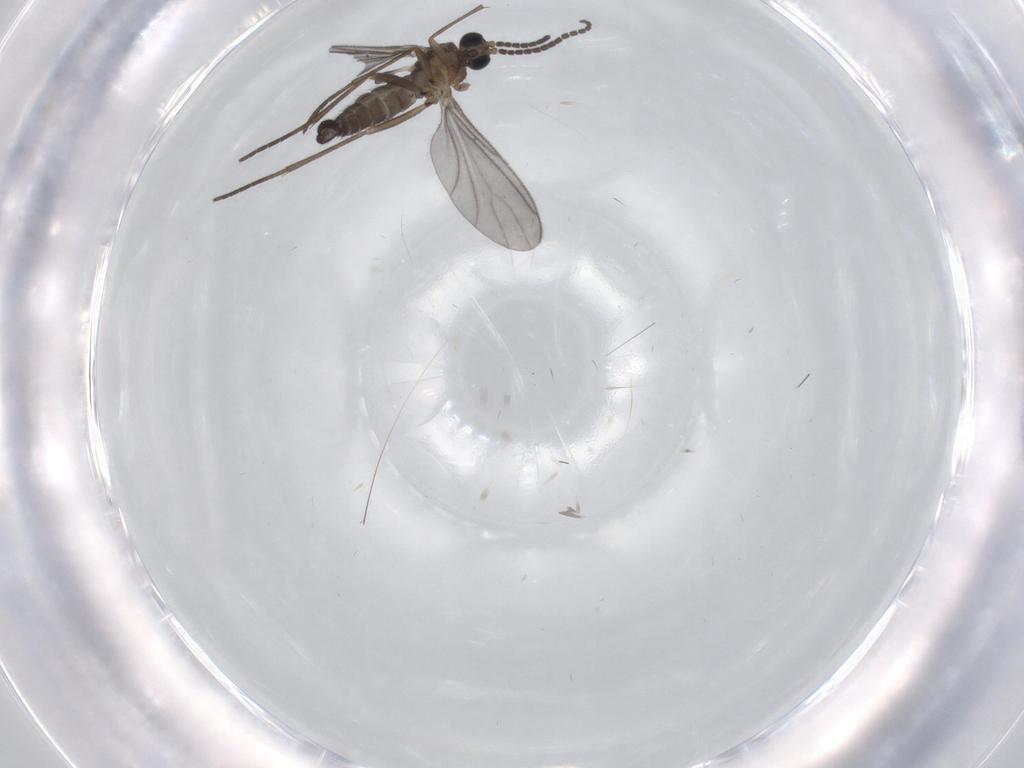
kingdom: Animalia
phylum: Arthropoda
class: Insecta
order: Diptera
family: Sciaridae
